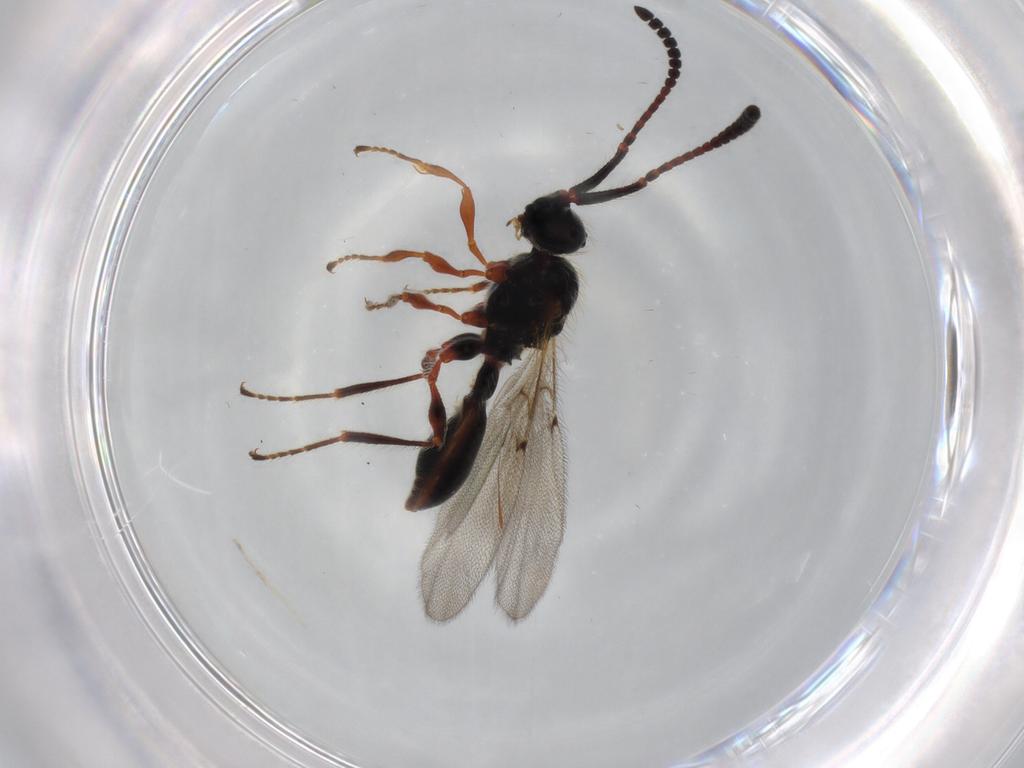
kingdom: Animalia
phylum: Arthropoda
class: Insecta
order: Hymenoptera
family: Diapriidae
